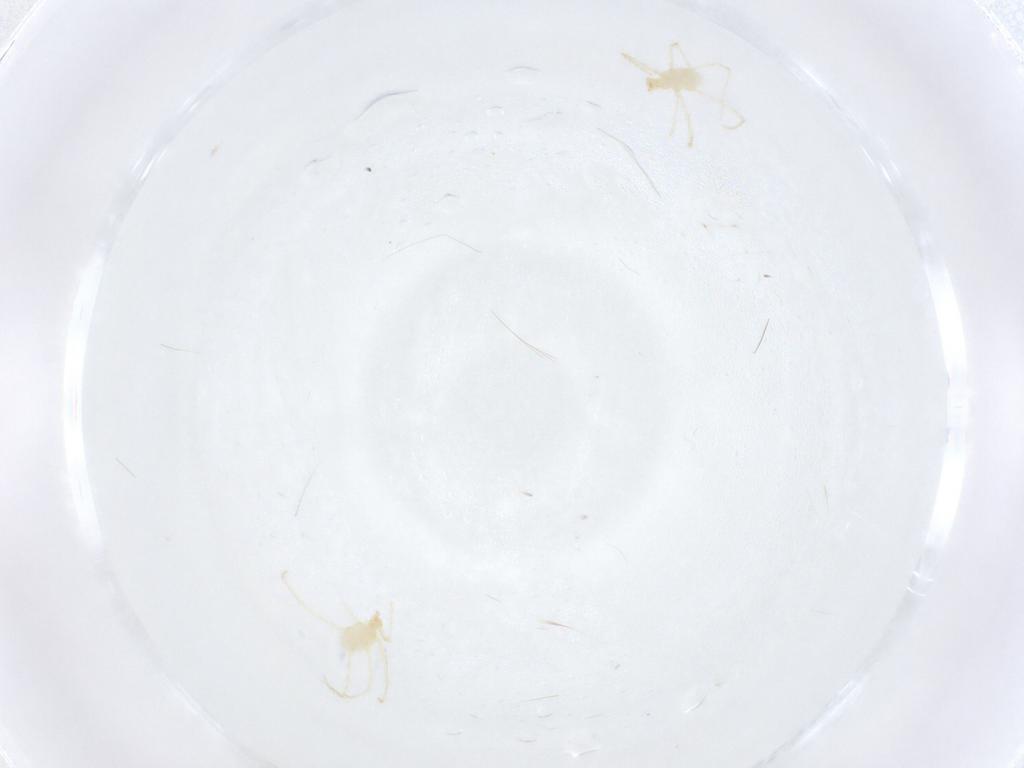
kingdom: Animalia
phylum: Arthropoda
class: Arachnida
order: Trombidiformes
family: Erythraeidae
